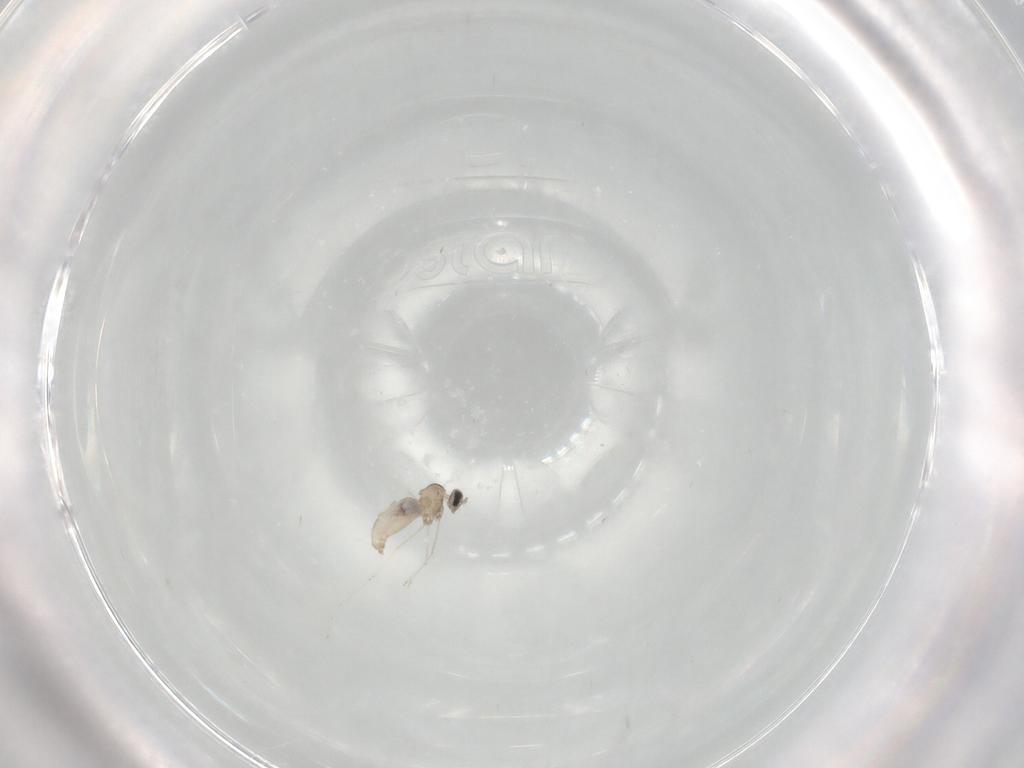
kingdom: Animalia
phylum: Arthropoda
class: Insecta
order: Diptera
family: Cecidomyiidae
